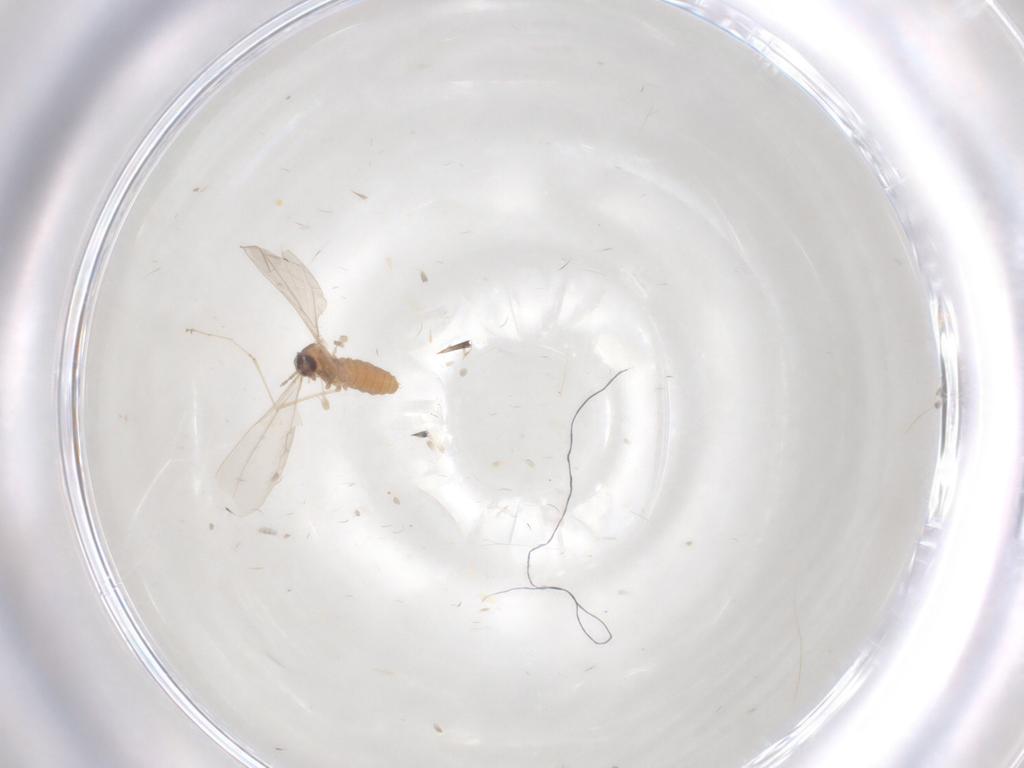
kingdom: Animalia
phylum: Arthropoda
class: Insecta
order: Diptera
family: Cecidomyiidae
